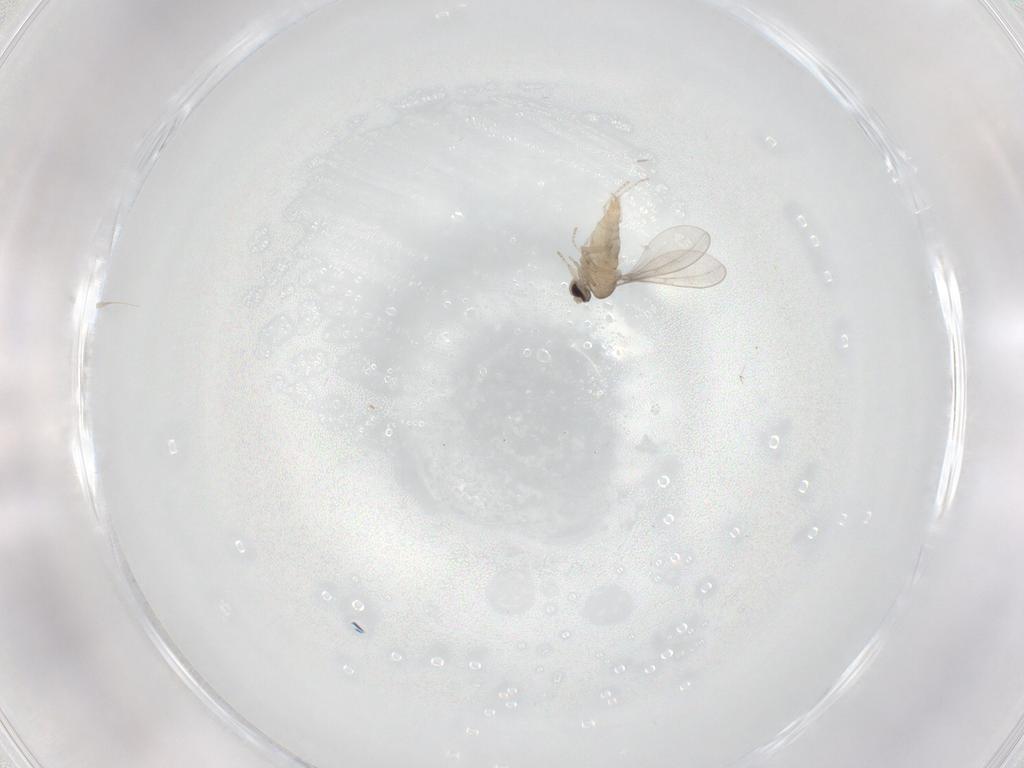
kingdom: Animalia
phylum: Arthropoda
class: Insecta
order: Diptera
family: Cecidomyiidae
